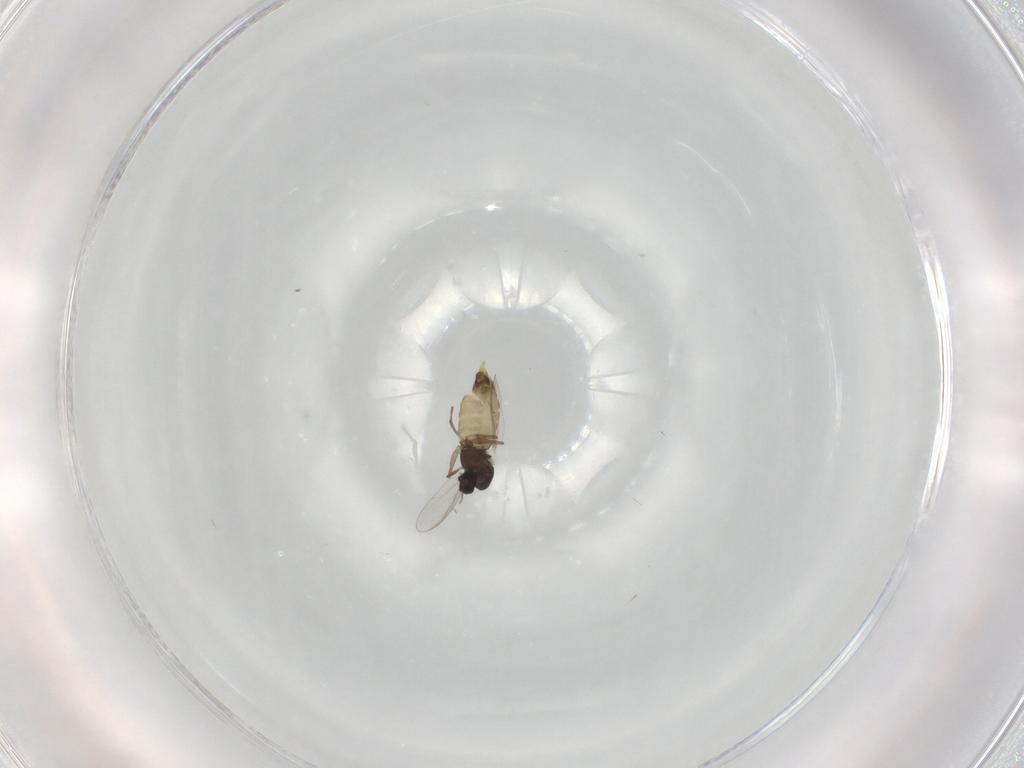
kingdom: Animalia
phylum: Arthropoda
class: Insecta
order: Diptera
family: Chironomidae
